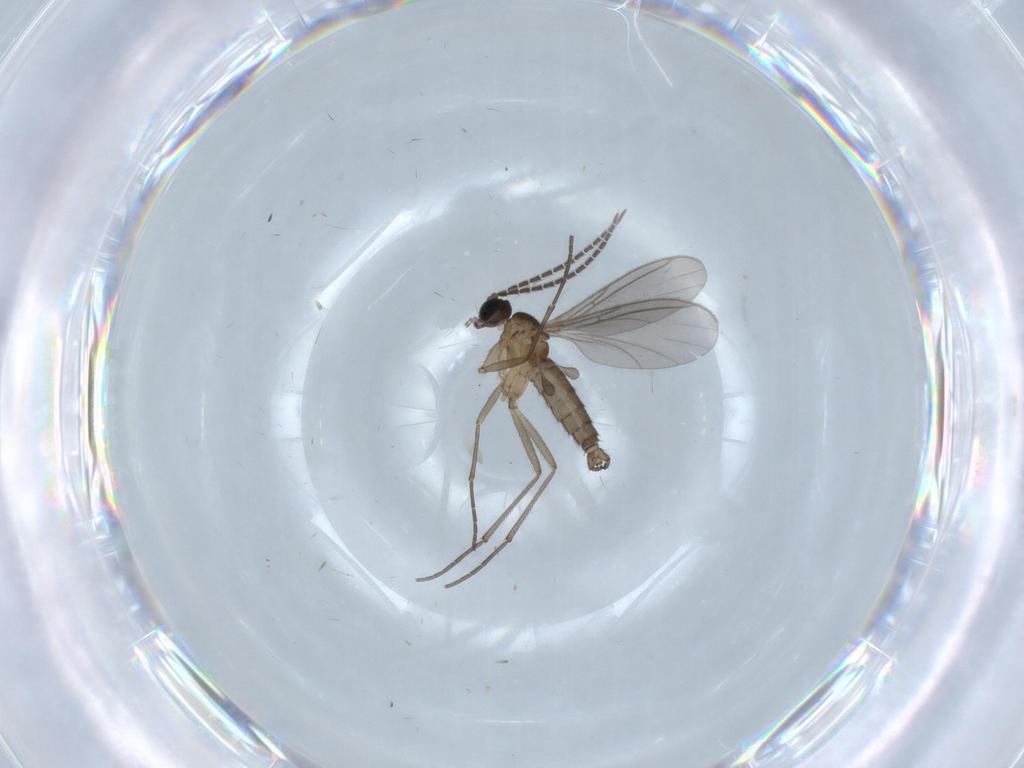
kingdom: Animalia
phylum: Arthropoda
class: Insecta
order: Diptera
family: Sciaridae
